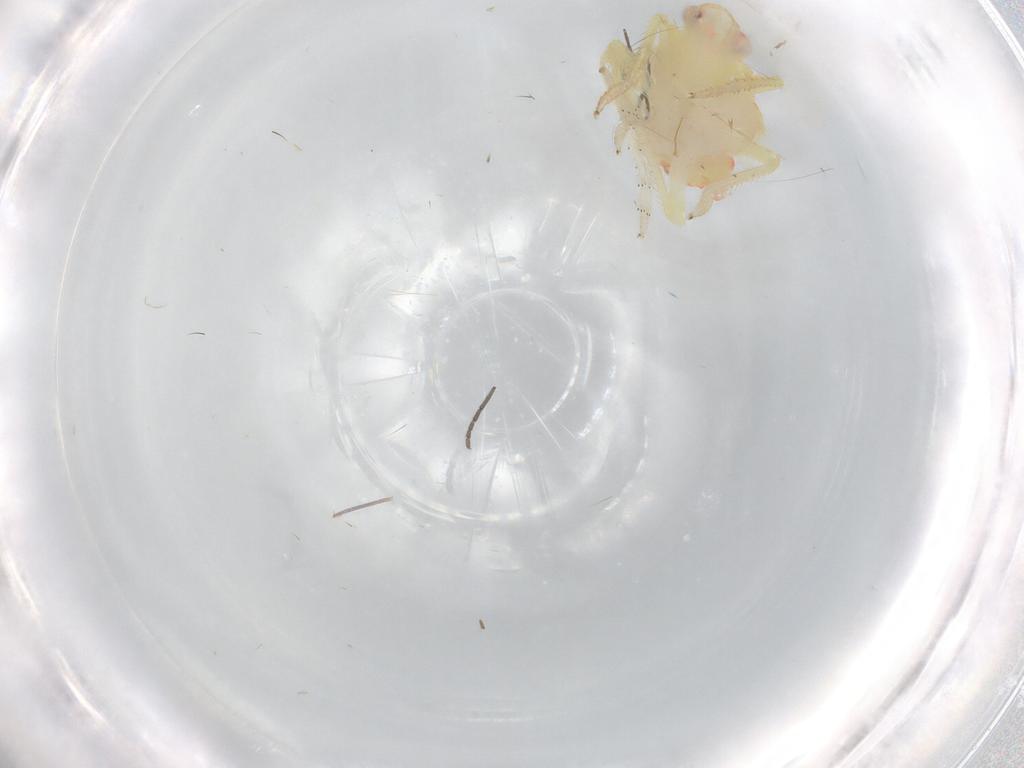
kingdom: Animalia
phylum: Arthropoda
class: Insecta
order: Hemiptera
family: Tropiduchidae
